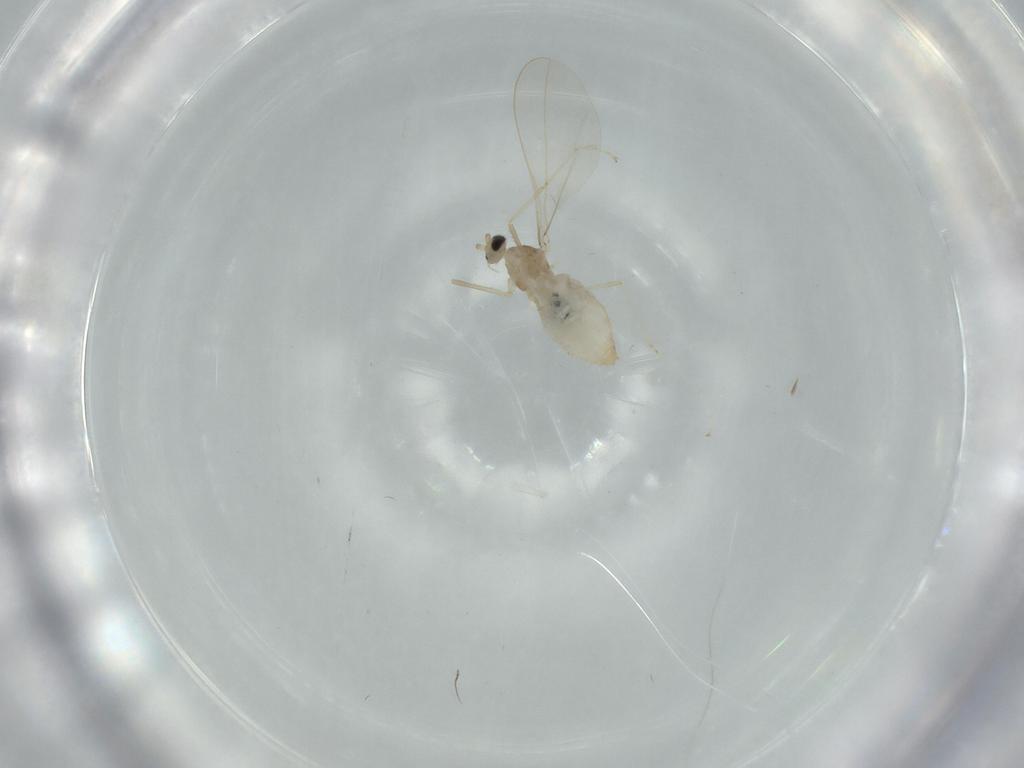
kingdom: Animalia
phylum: Arthropoda
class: Insecta
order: Diptera
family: Cecidomyiidae
